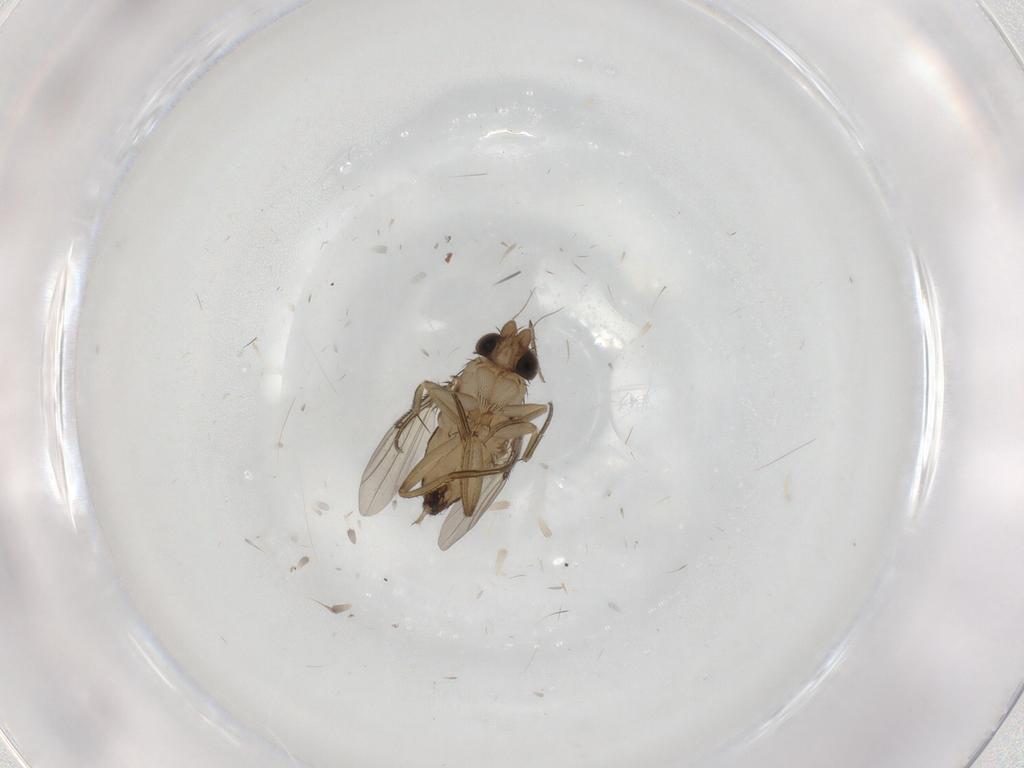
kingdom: Animalia
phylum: Arthropoda
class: Insecta
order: Diptera
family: Phoridae
